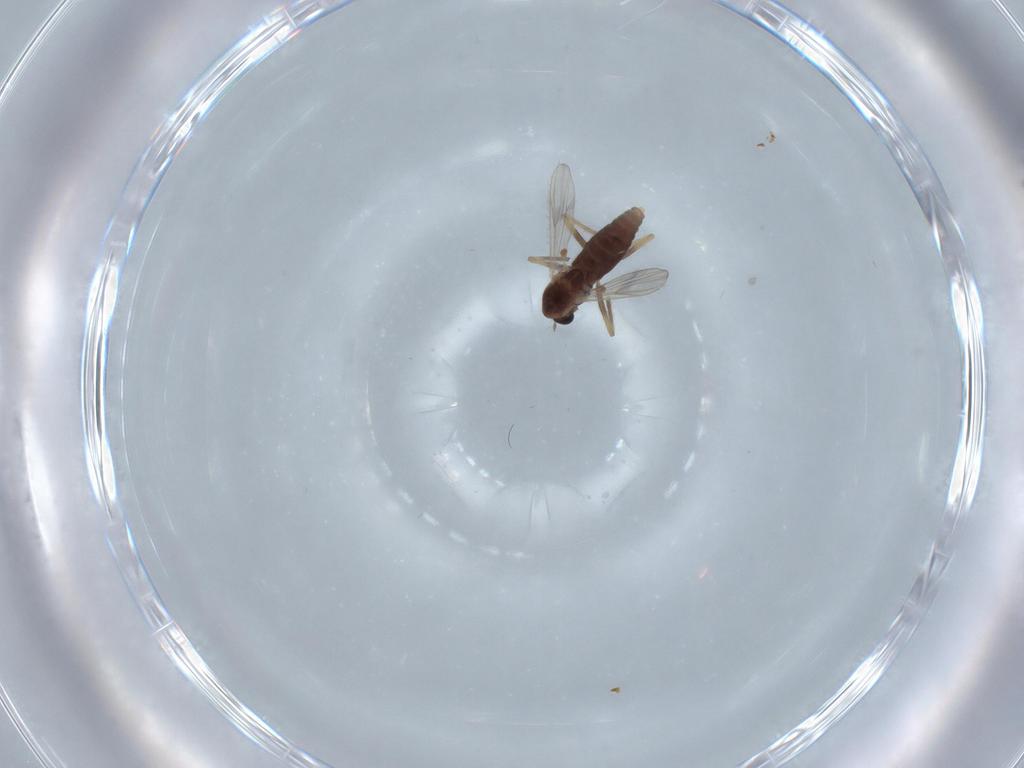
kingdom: Animalia
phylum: Arthropoda
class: Insecta
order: Diptera
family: Chironomidae
